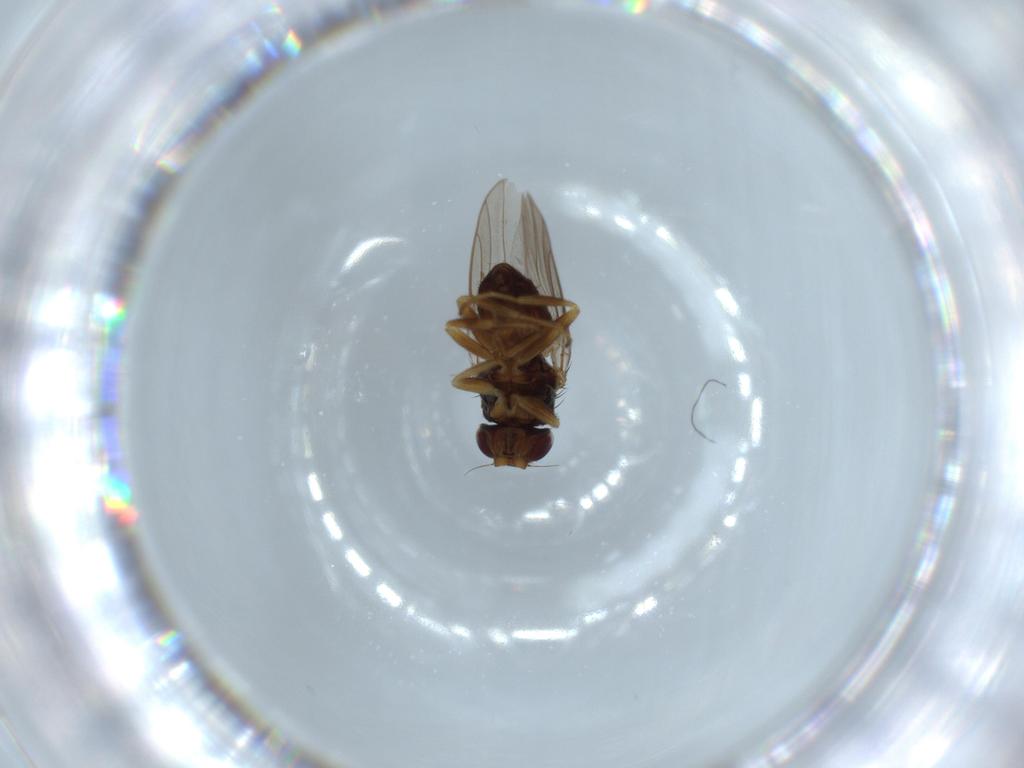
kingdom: Animalia
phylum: Arthropoda
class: Insecta
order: Diptera
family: Chloropidae
